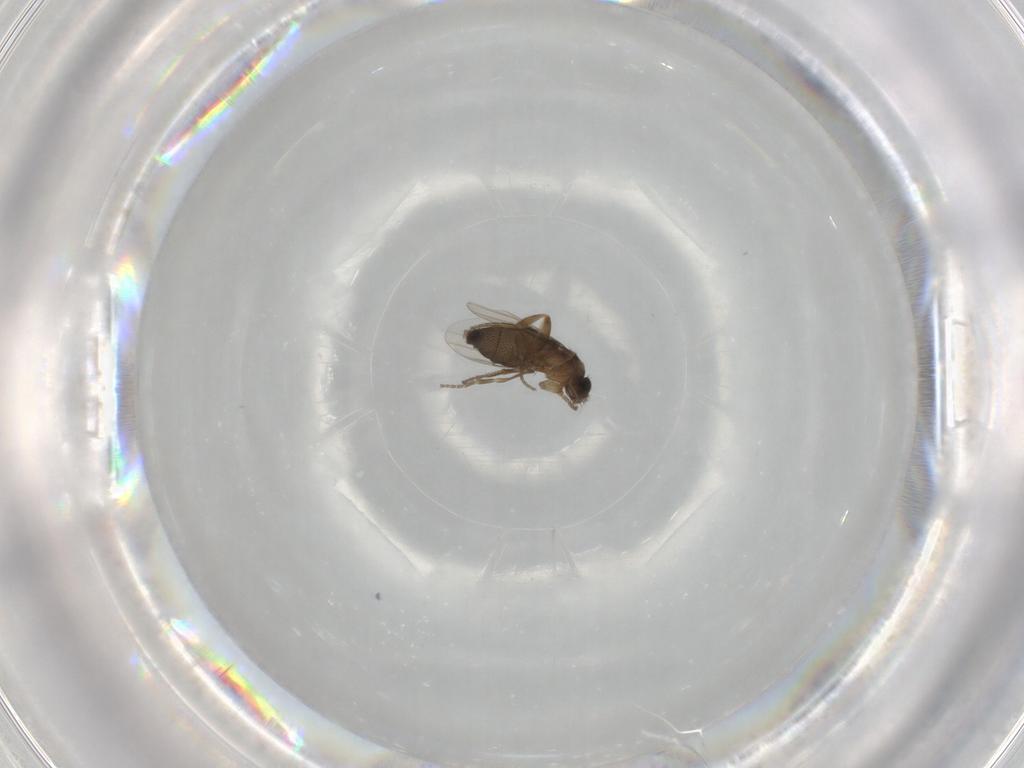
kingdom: Animalia
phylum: Arthropoda
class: Insecta
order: Diptera
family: Phoridae
